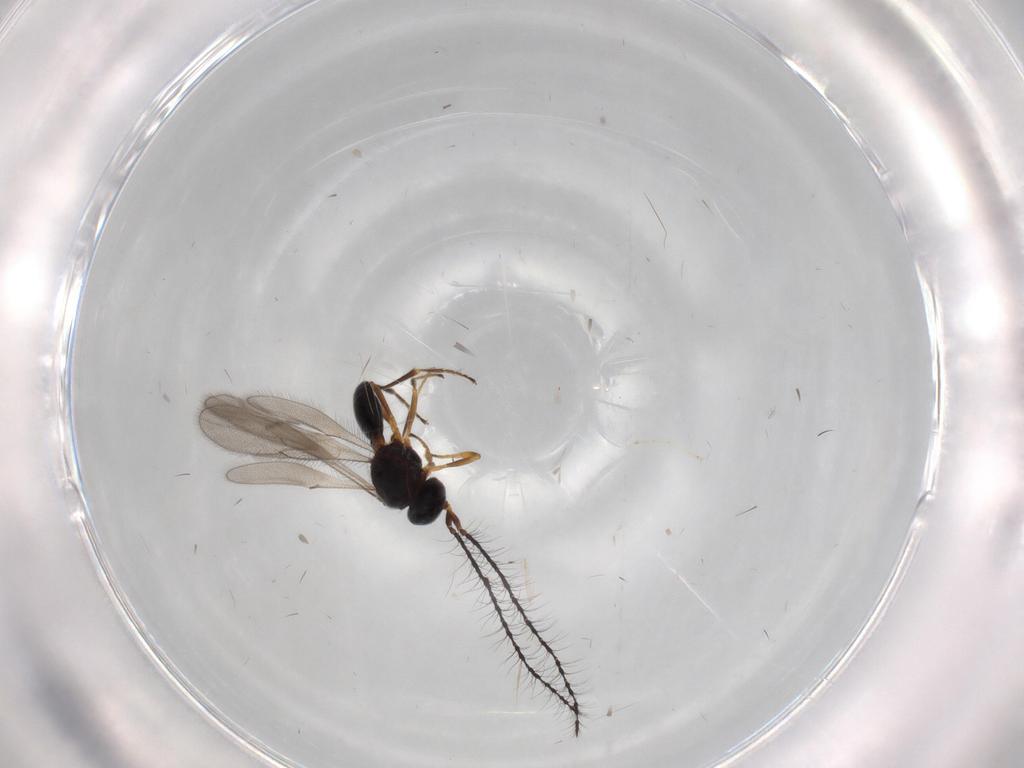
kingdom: Animalia
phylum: Arthropoda
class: Insecta
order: Hymenoptera
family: Scelionidae
